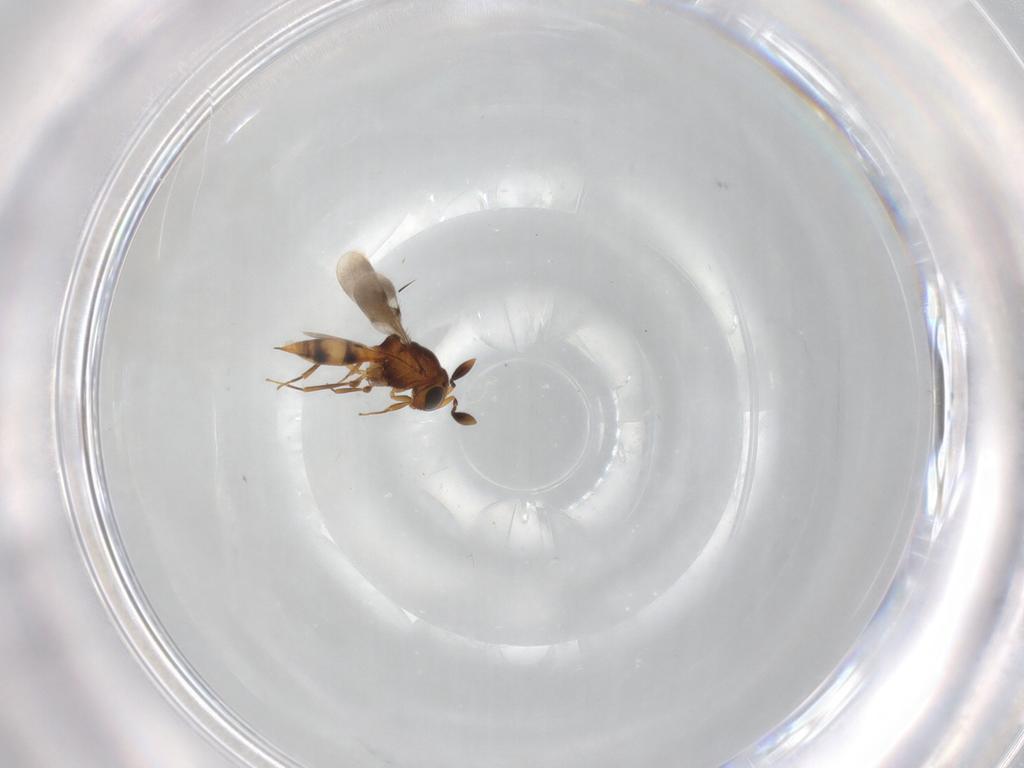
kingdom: Animalia
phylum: Arthropoda
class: Insecta
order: Hymenoptera
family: Scelionidae
